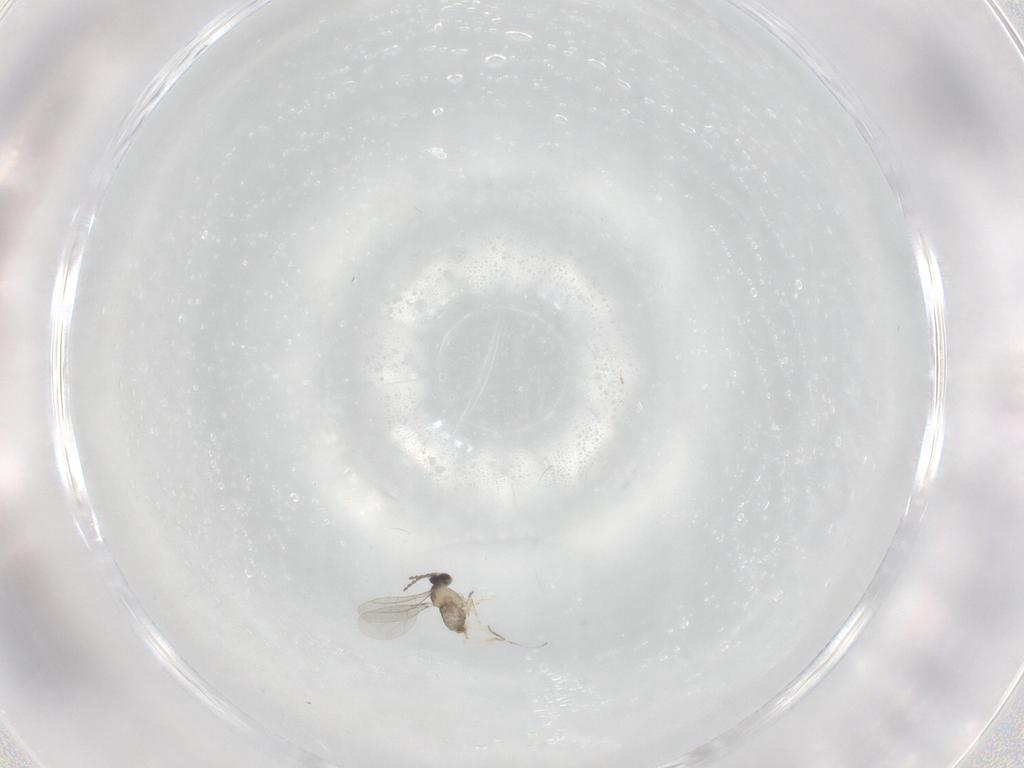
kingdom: Animalia
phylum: Arthropoda
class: Insecta
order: Diptera
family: Cecidomyiidae
